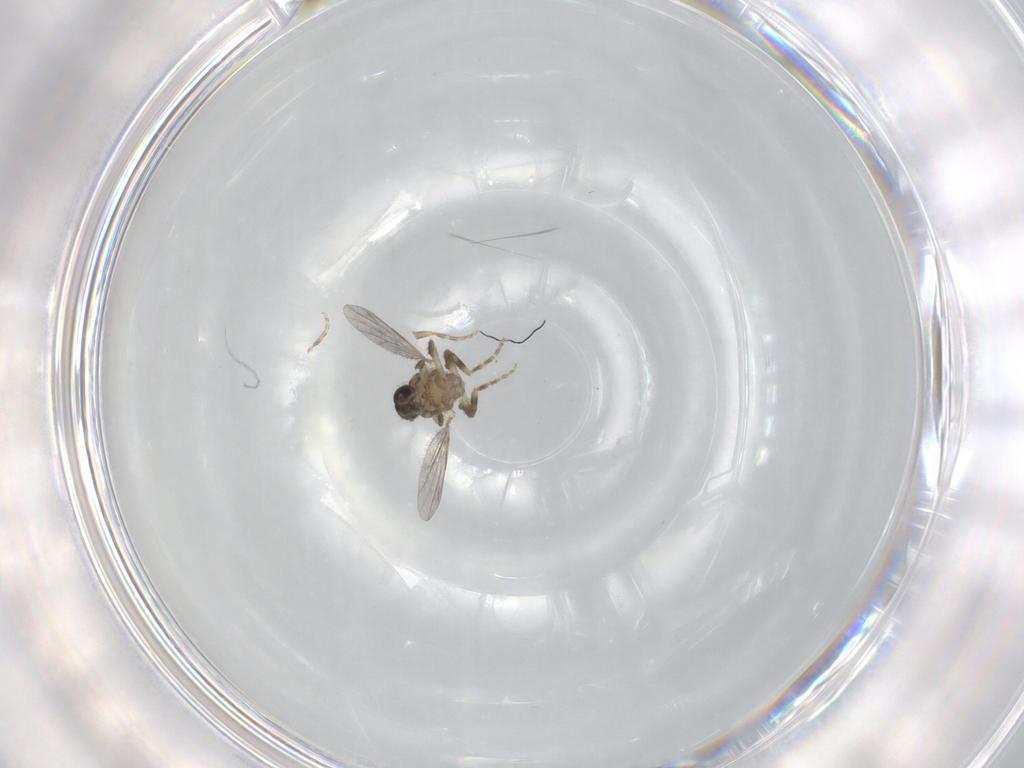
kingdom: Animalia
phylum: Arthropoda
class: Insecta
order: Diptera
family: Ceratopogonidae
